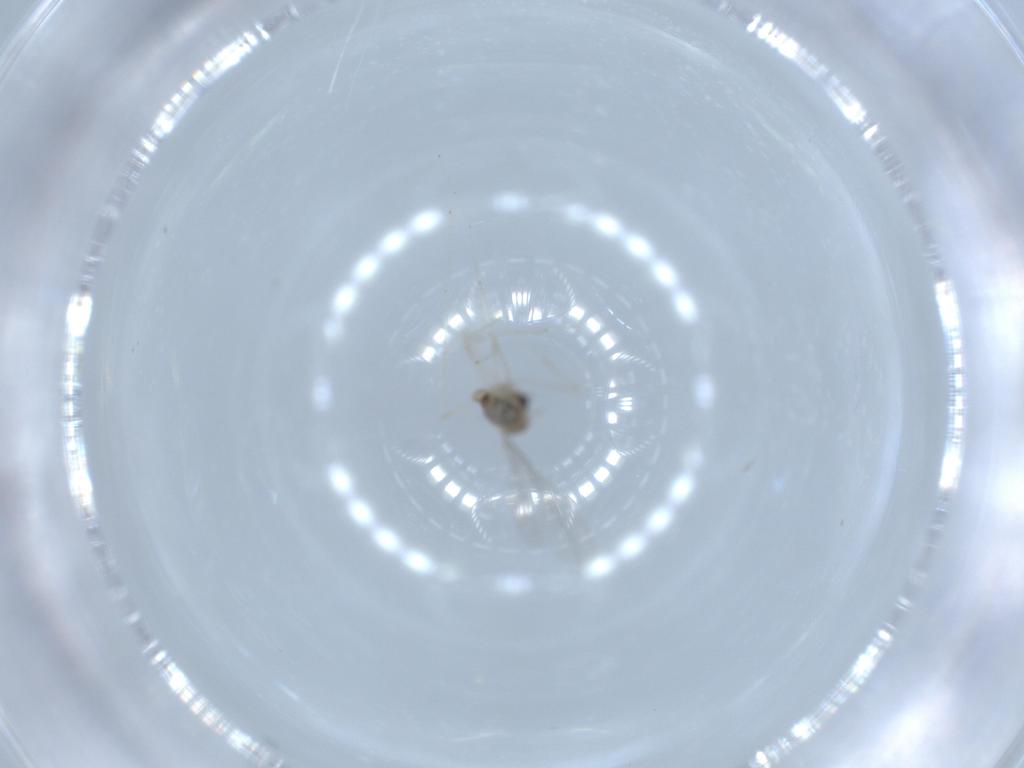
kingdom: Animalia
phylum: Arthropoda
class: Insecta
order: Diptera
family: Cecidomyiidae
